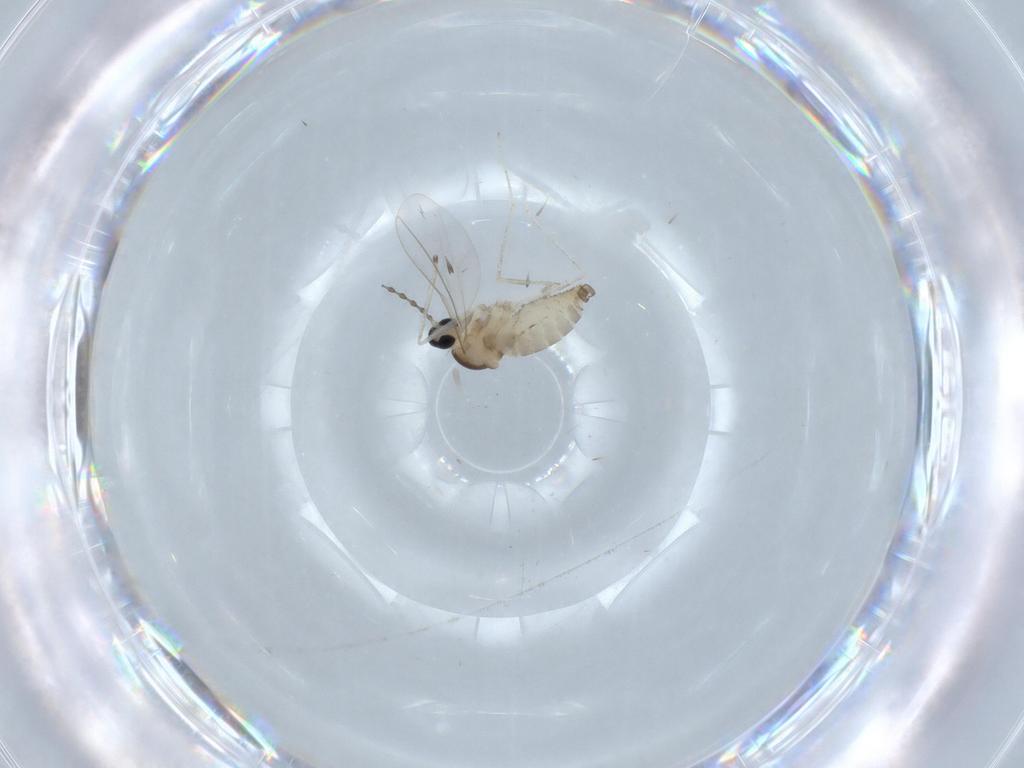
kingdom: Animalia
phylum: Arthropoda
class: Insecta
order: Diptera
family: Cecidomyiidae
